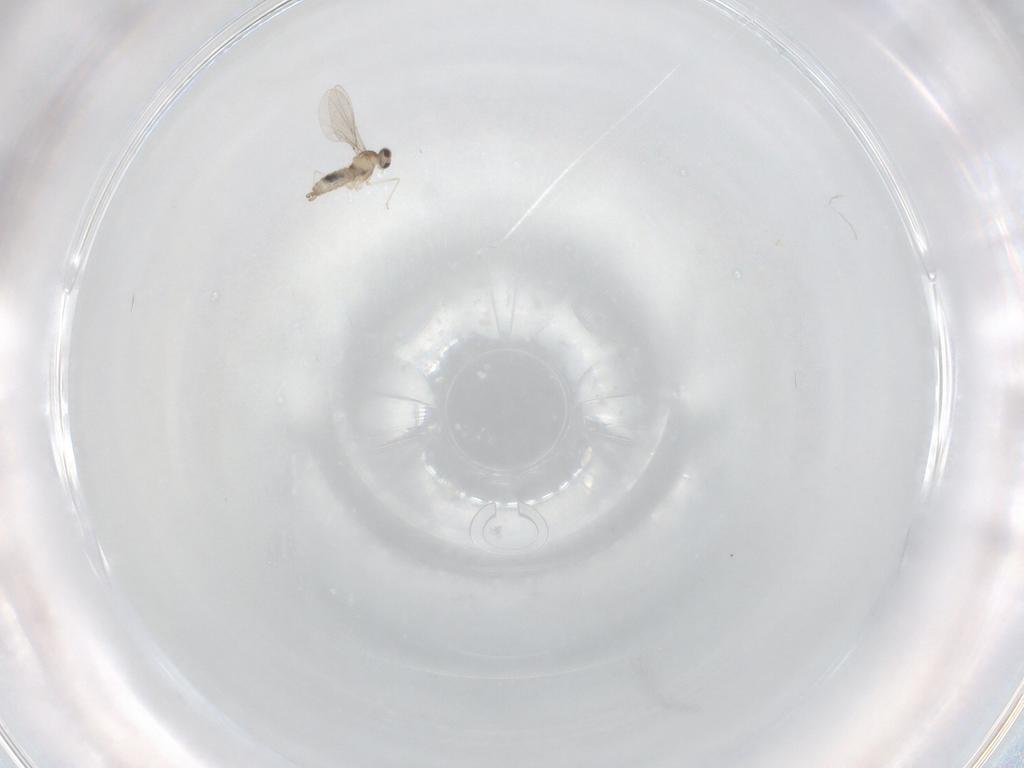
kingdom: Animalia
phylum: Arthropoda
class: Insecta
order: Diptera
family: Cecidomyiidae
